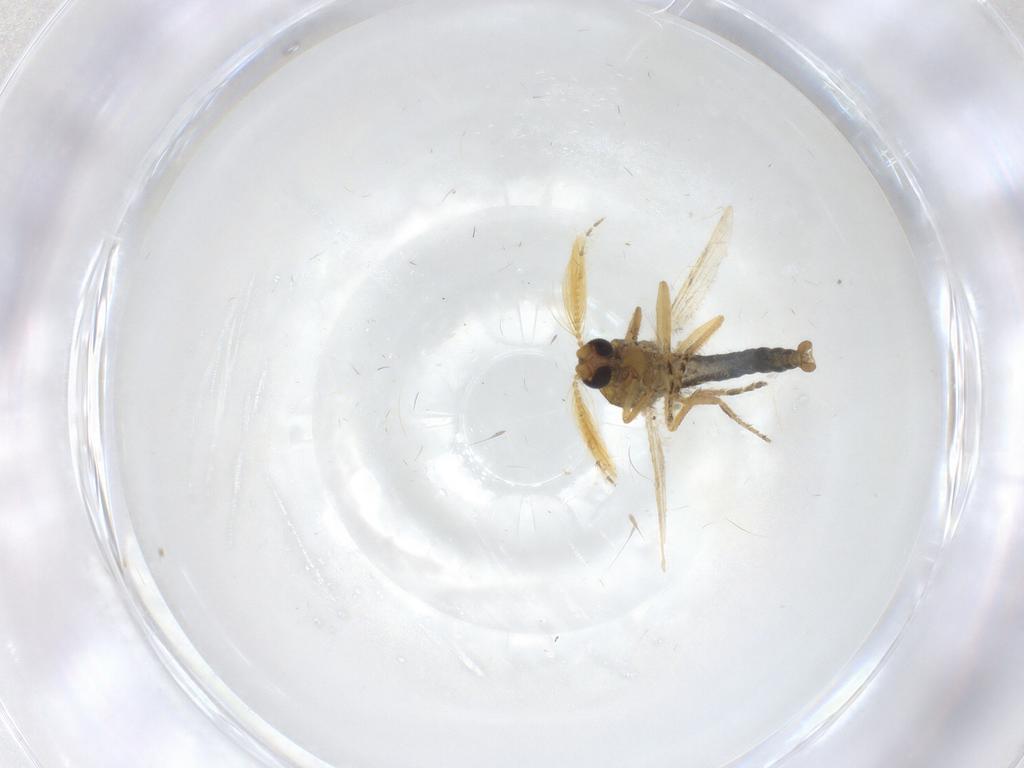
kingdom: Animalia
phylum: Arthropoda
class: Insecta
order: Diptera
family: Ceratopogonidae
